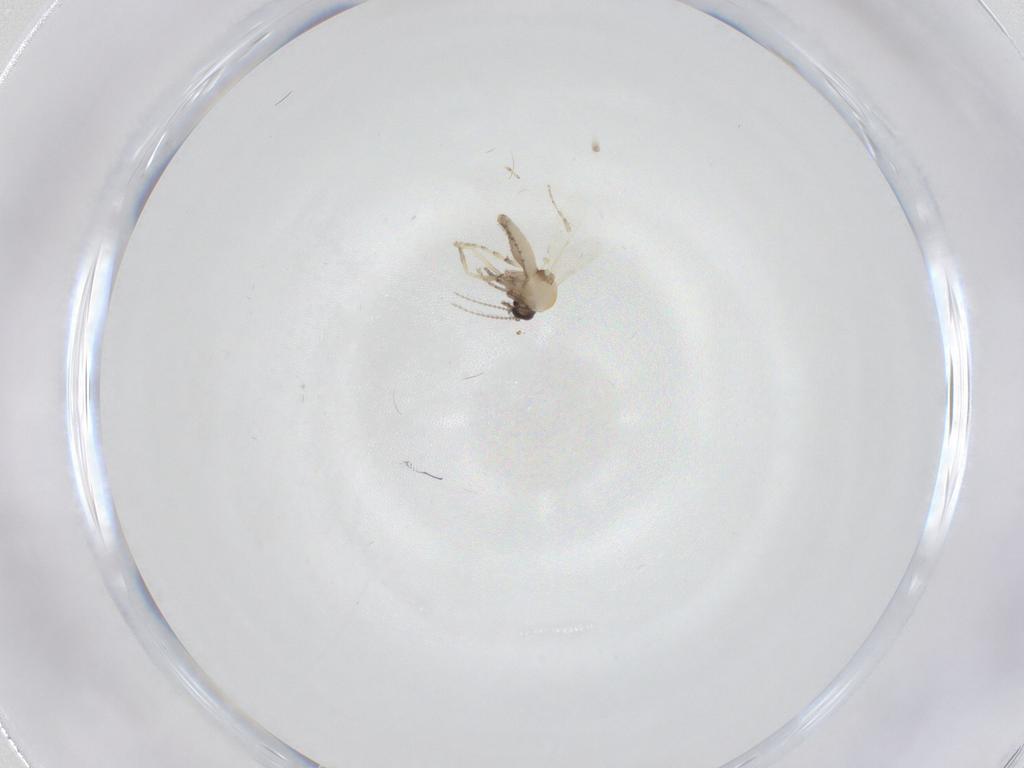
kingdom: Animalia
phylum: Arthropoda
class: Insecta
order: Diptera
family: Ceratopogonidae
